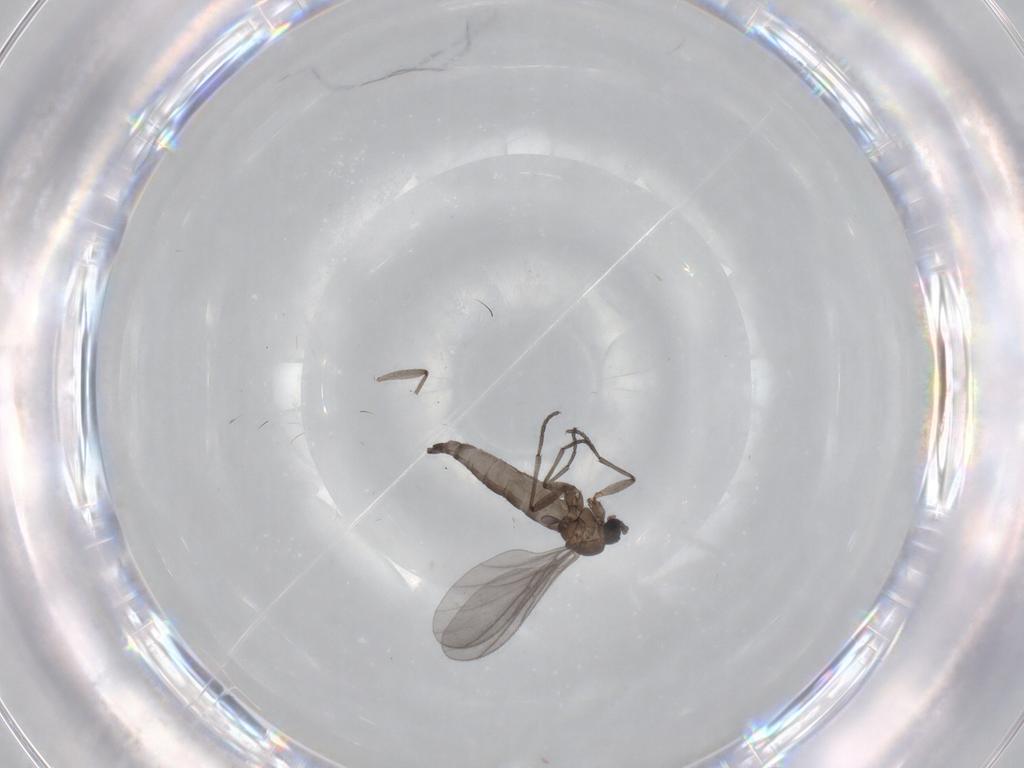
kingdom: Animalia
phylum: Arthropoda
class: Insecta
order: Diptera
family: Sciaridae
